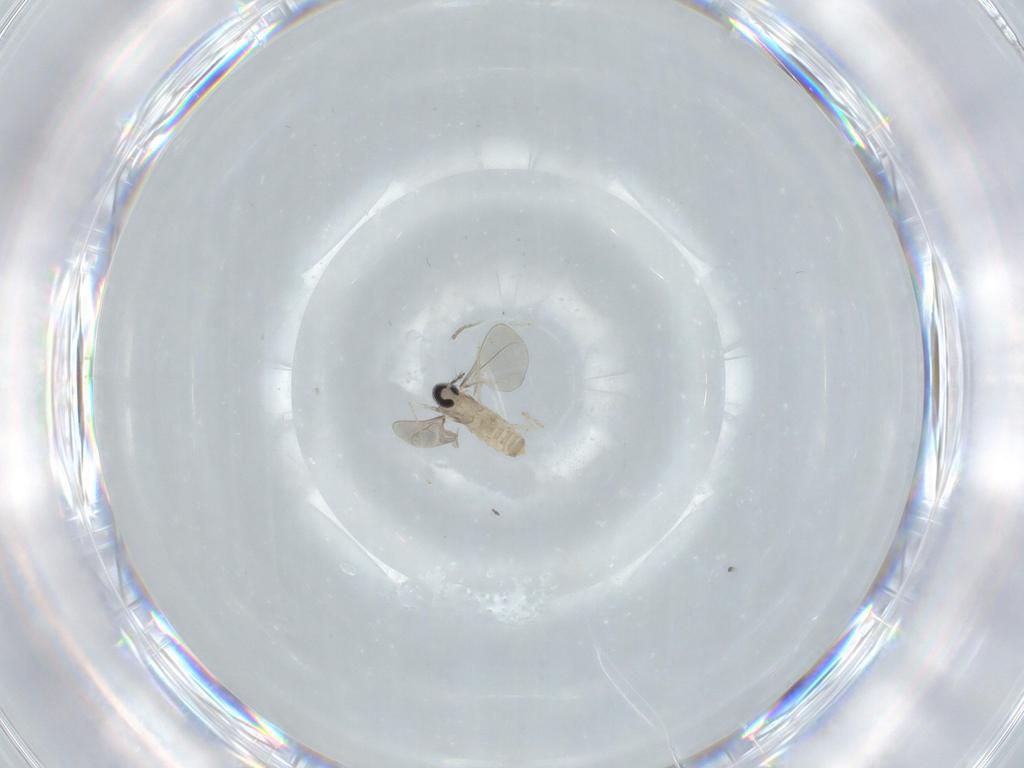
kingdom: Animalia
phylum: Arthropoda
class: Insecta
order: Diptera
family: Cecidomyiidae
